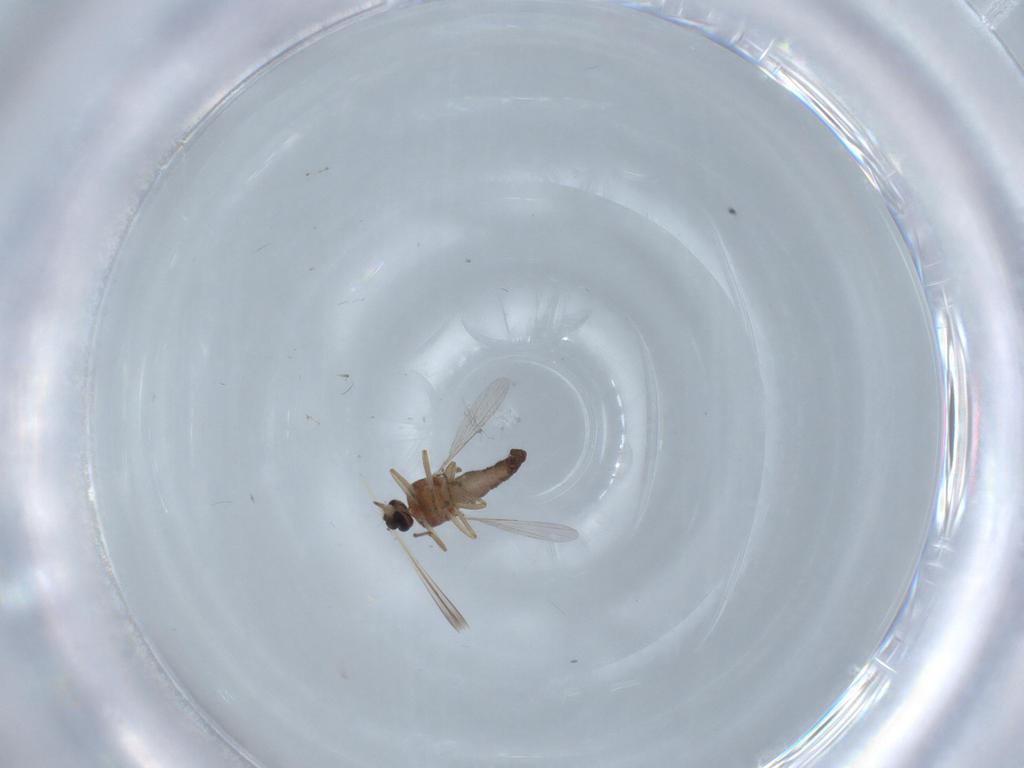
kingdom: Animalia
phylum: Arthropoda
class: Insecta
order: Diptera
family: Ceratopogonidae
